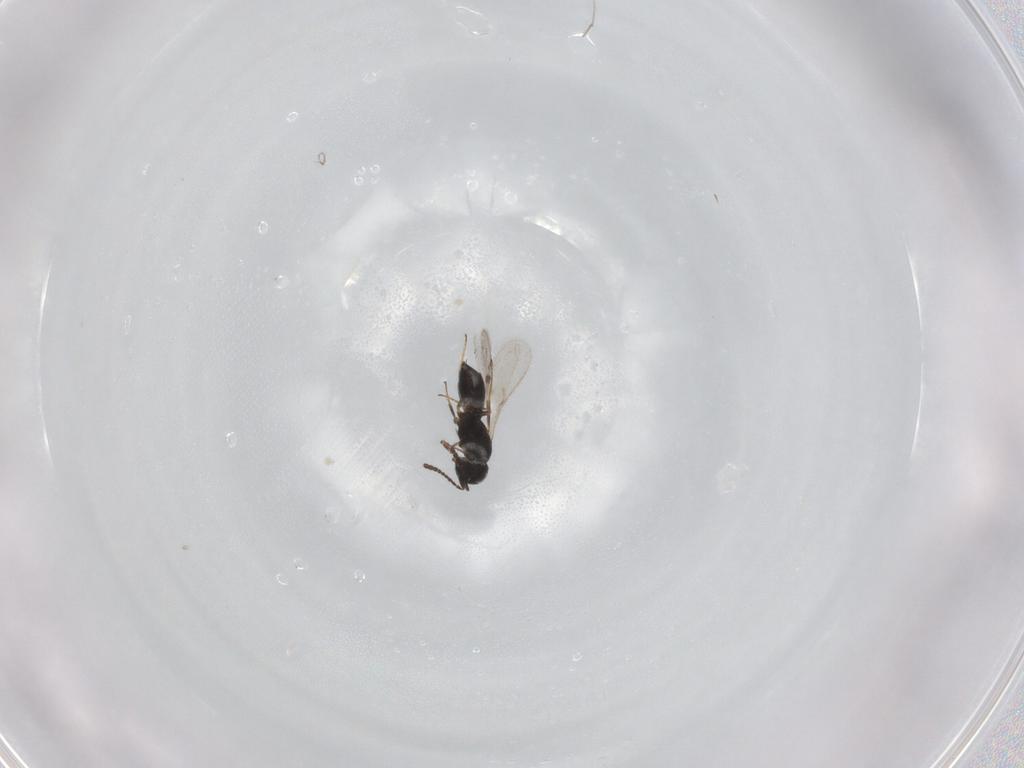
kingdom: Animalia
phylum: Arthropoda
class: Insecta
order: Hymenoptera
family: Scelionidae
